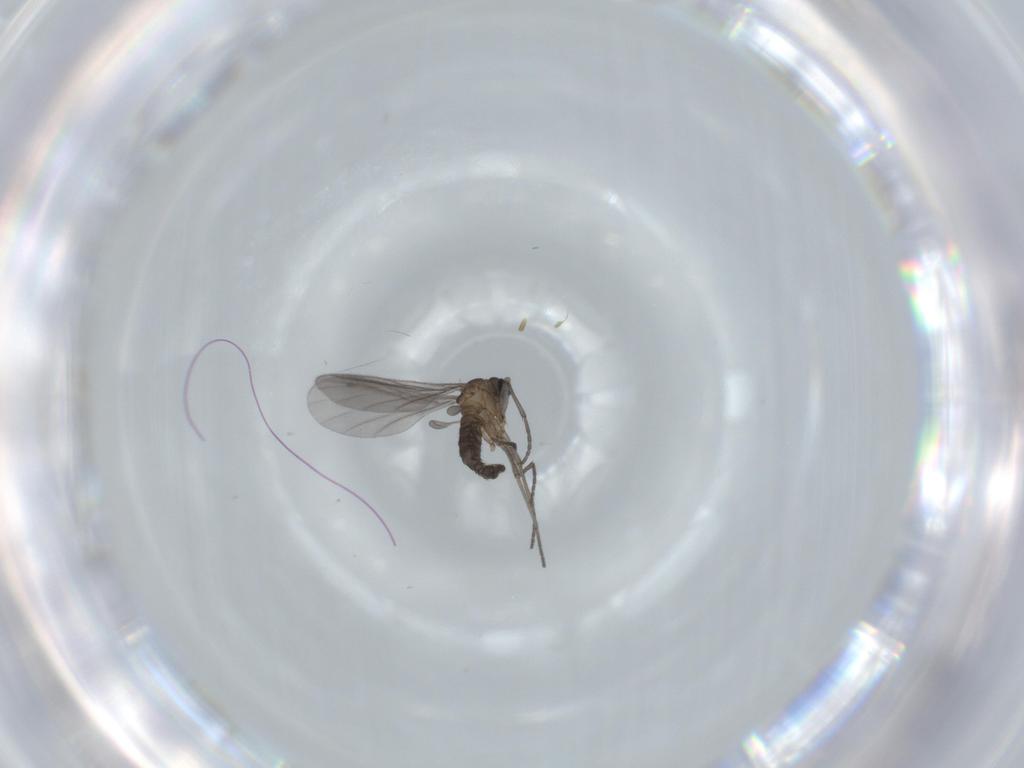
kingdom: Animalia
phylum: Arthropoda
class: Insecta
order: Diptera
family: Sciaridae
